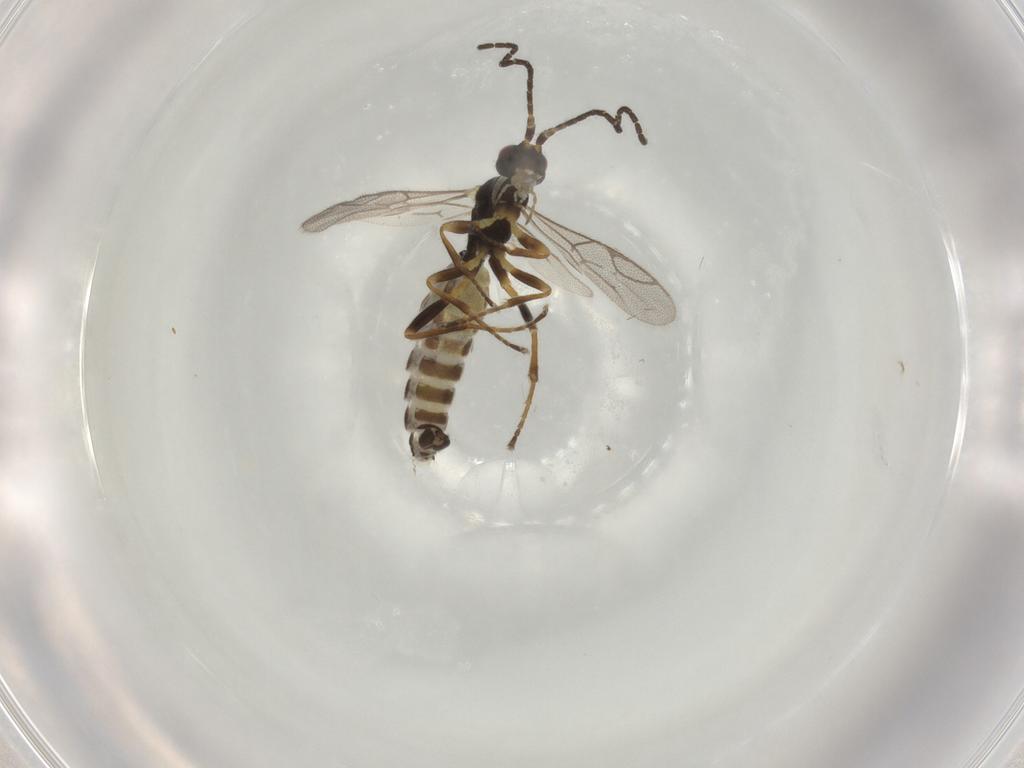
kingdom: Animalia
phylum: Arthropoda
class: Insecta
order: Hymenoptera
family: Ichneumonidae
